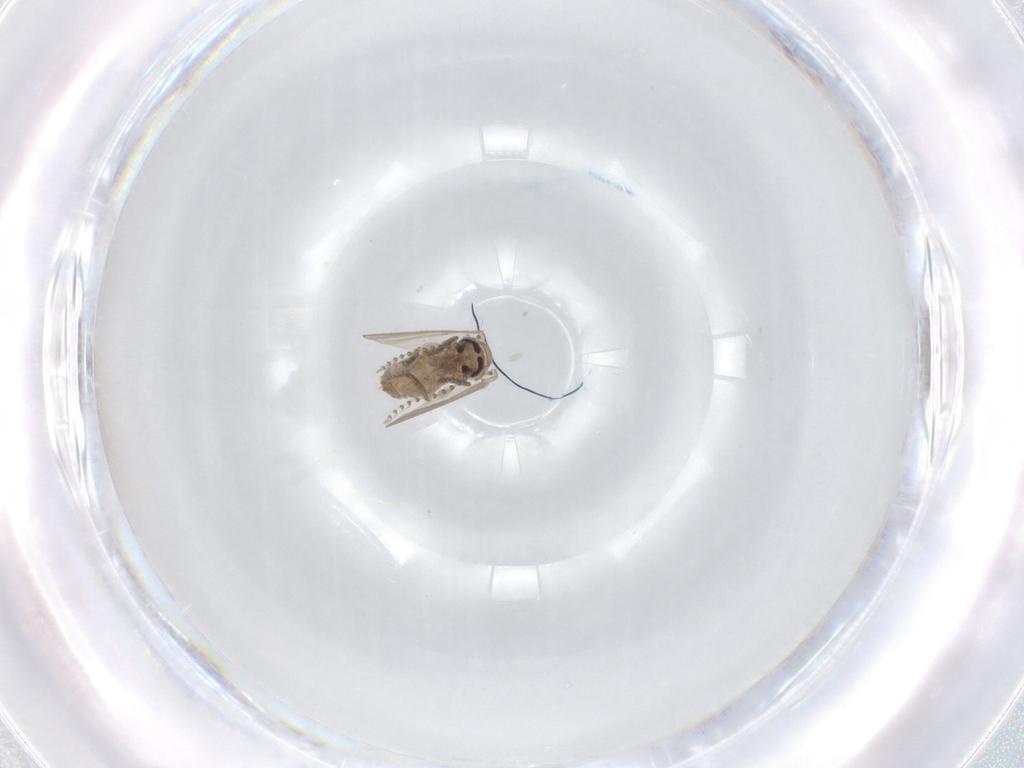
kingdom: Animalia
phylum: Arthropoda
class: Insecta
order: Diptera
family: Psychodidae
